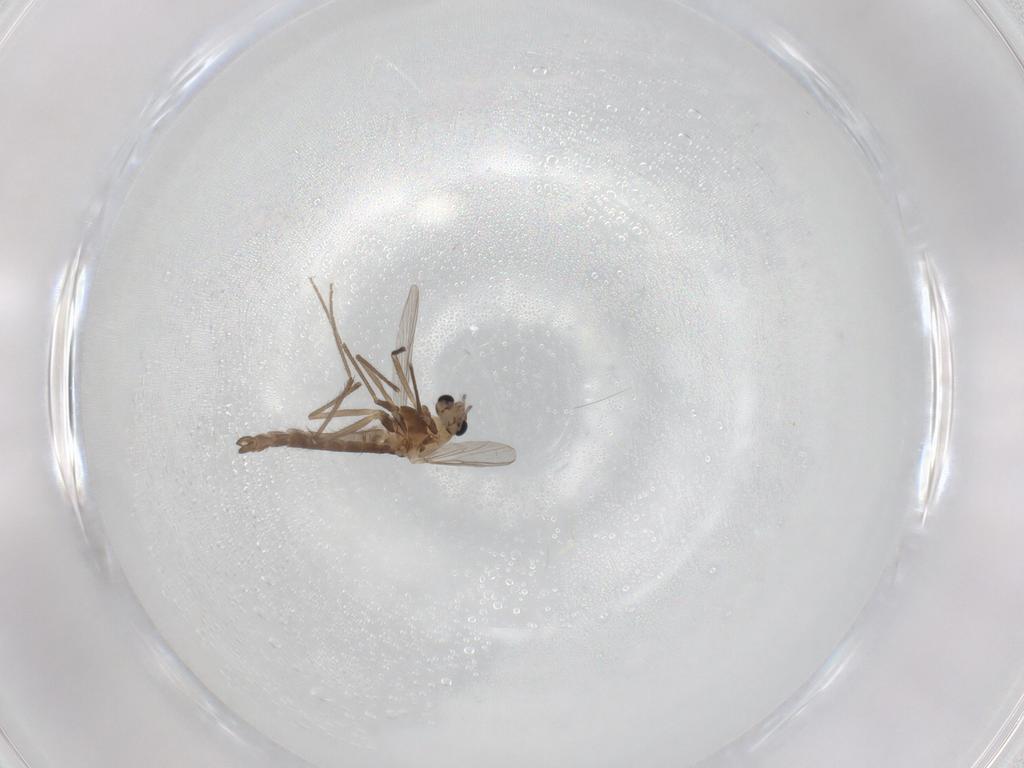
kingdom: Animalia
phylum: Arthropoda
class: Insecta
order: Diptera
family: Chironomidae
